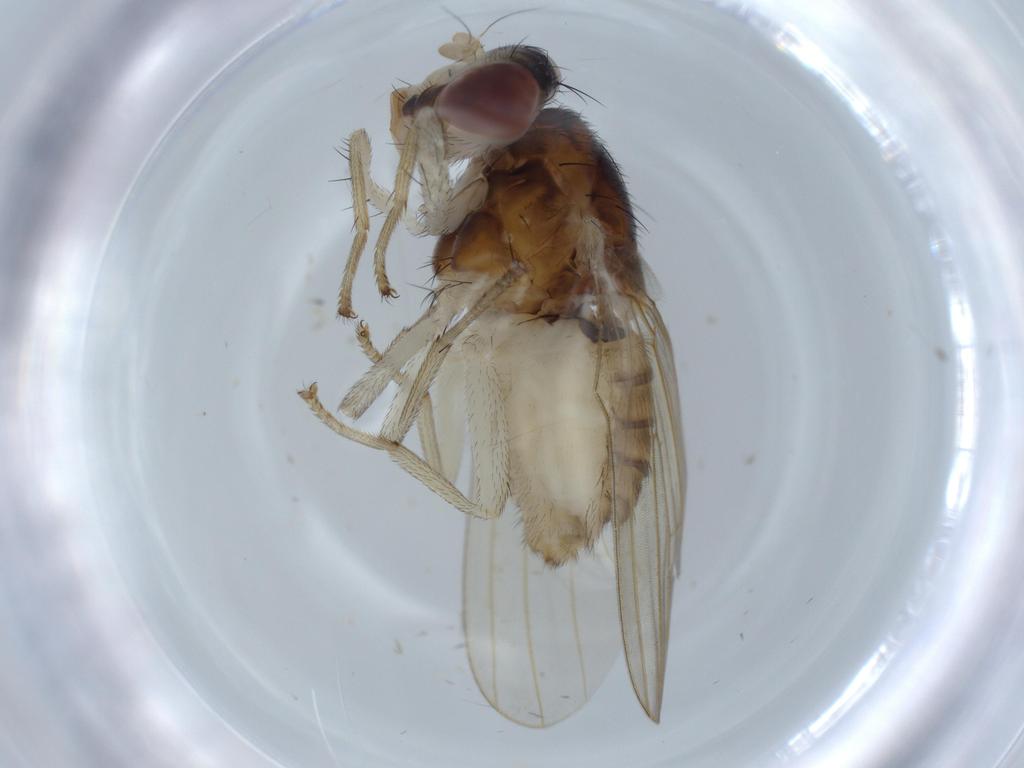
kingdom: Animalia
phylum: Arthropoda
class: Insecta
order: Diptera
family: Lauxaniidae
